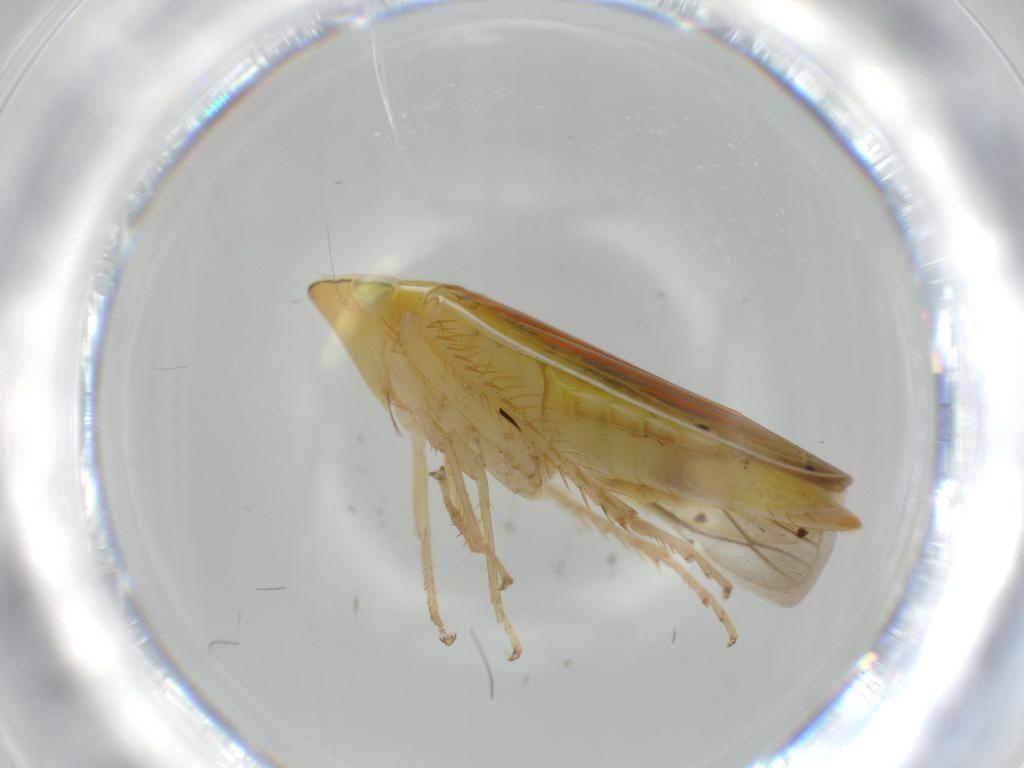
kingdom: Animalia
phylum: Arthropoda
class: Insecta
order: Hemiptera
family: Cicadellidae
